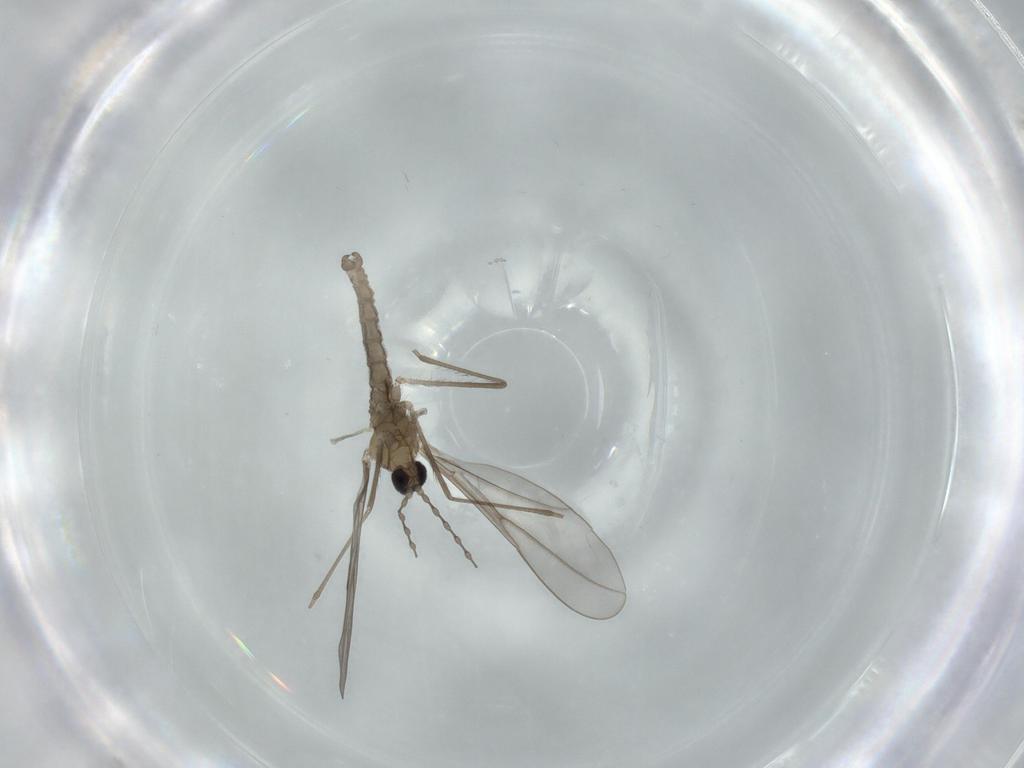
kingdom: Animalia
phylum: Arthropoda
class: Insecta
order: Diptera
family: Cecidomyiidae
